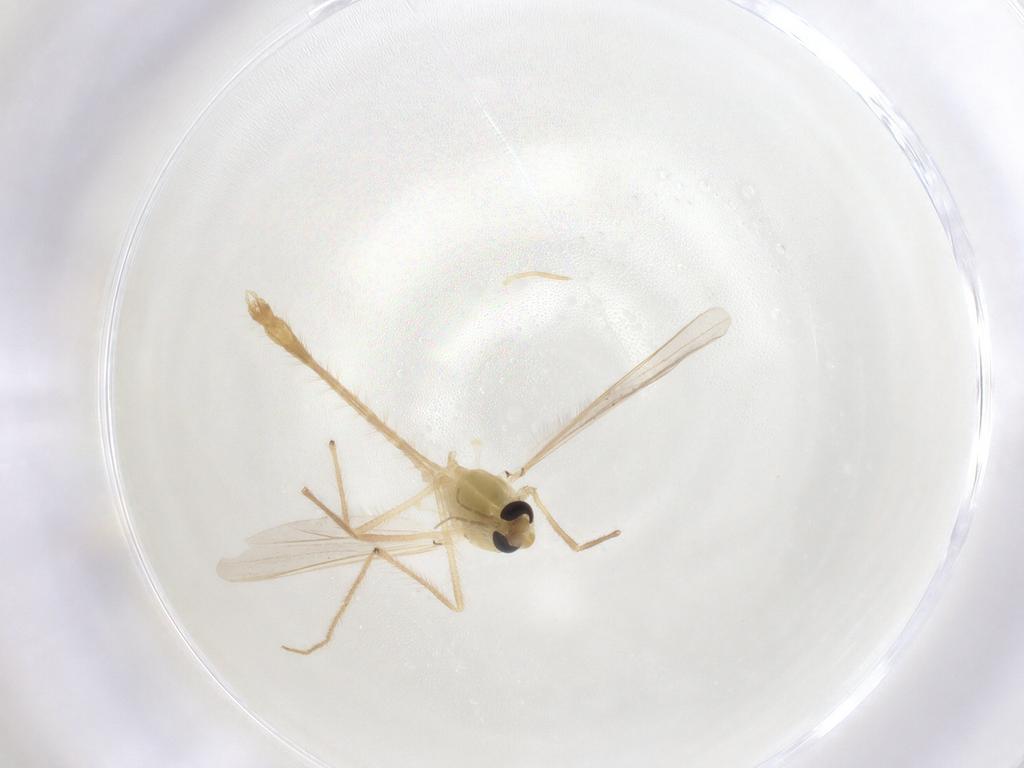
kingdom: Animalia
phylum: Arthropoda
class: Insecta
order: Diptera
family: Chironomidae
